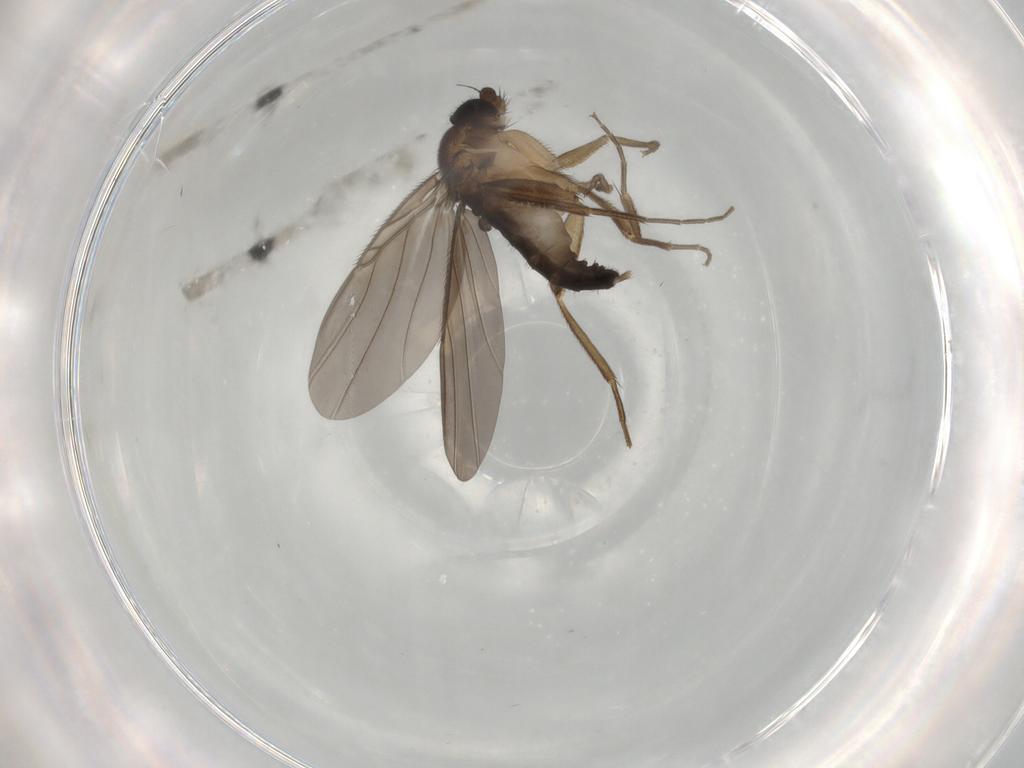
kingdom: Animalia
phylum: Arthropoda
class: Insecta
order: Diptera
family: Phoridae
